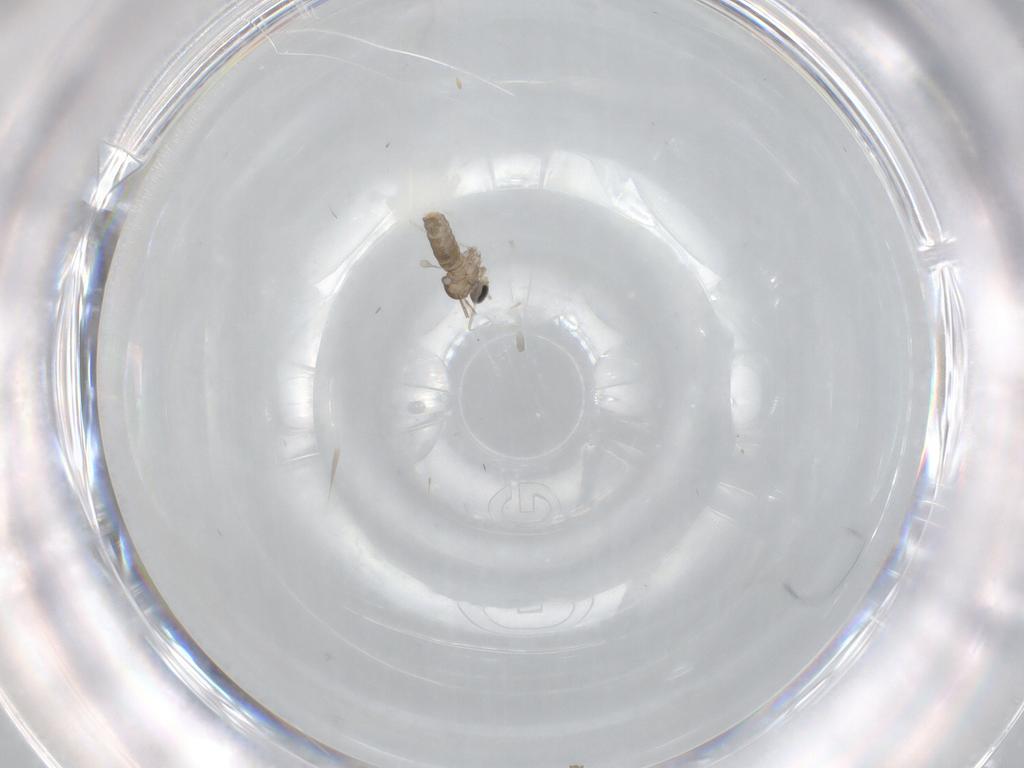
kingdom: Animalia
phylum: Arthropoda
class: Insecta
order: Diptera
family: Cecidomyiidae
